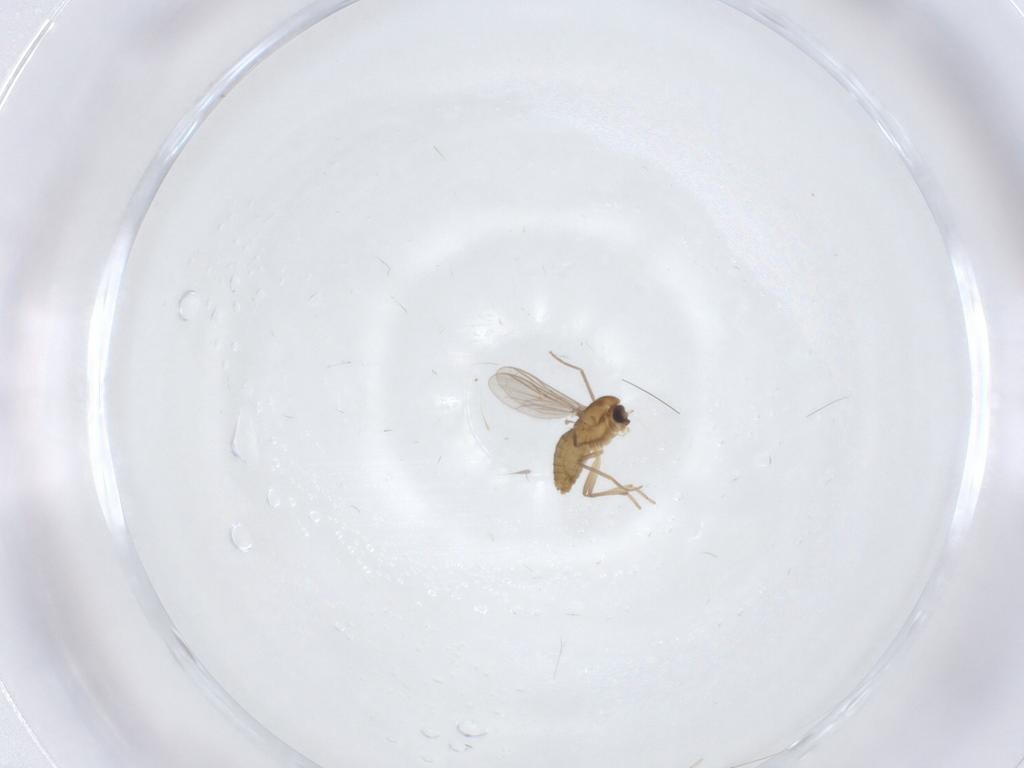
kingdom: Animalia
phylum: Arthropoda
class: Insecta
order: Diptera
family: Chironomidae
